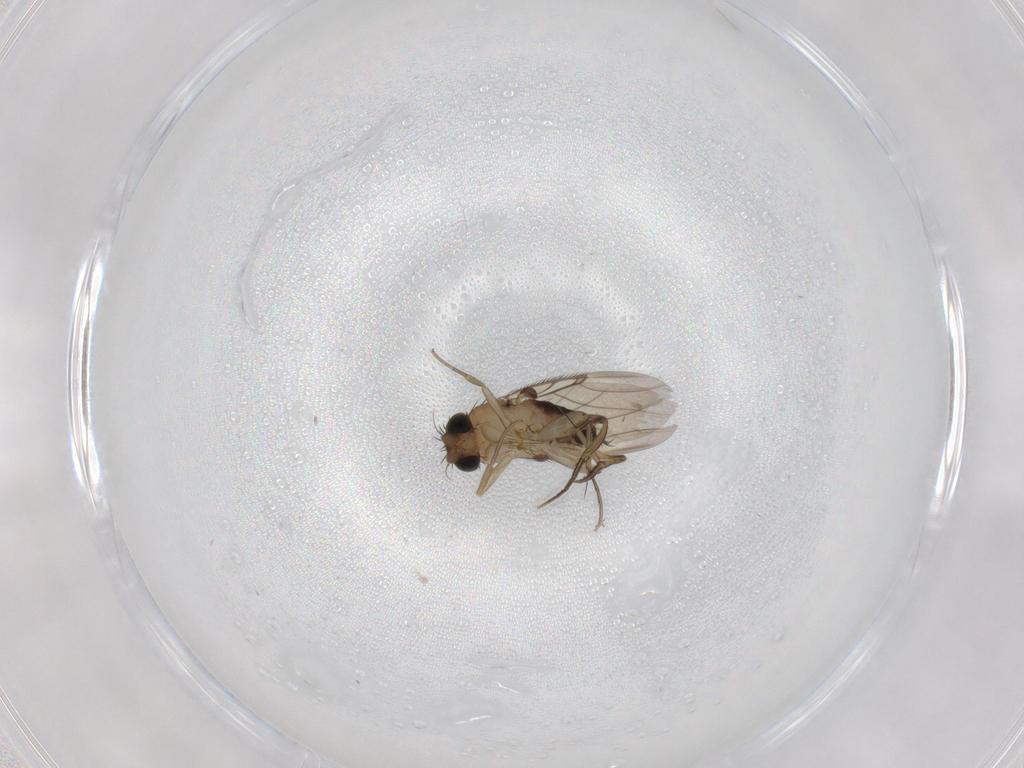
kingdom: Animalia
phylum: Arthropoda
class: Insecta
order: Diptera
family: Phoridae
